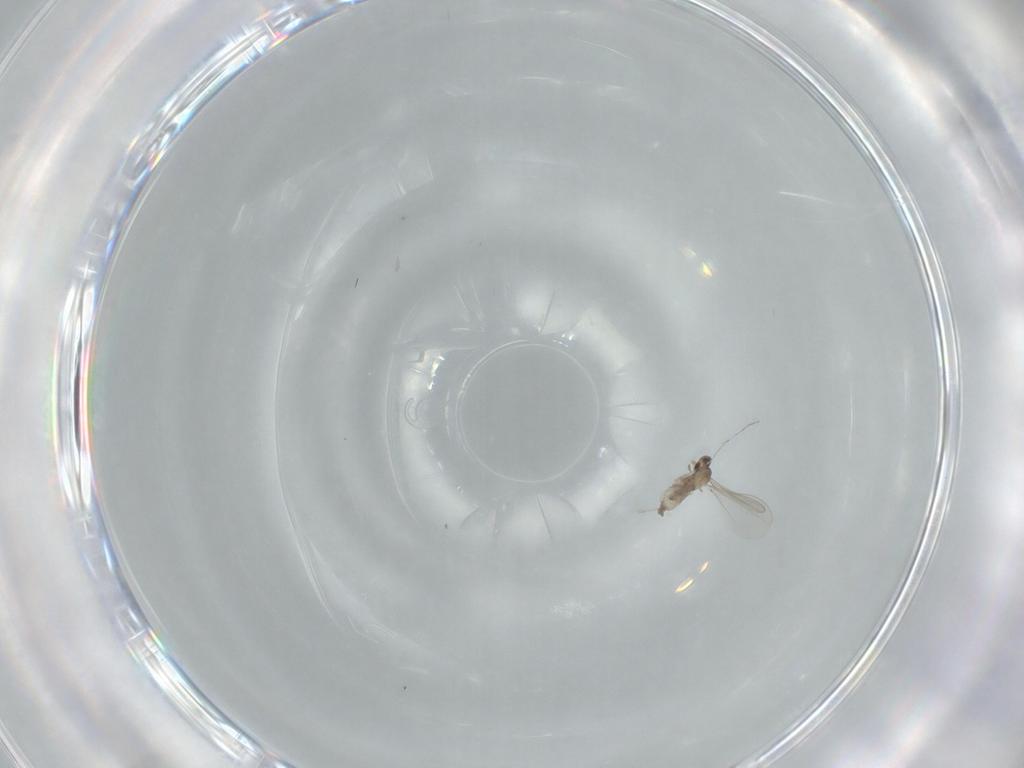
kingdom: Animalia
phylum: Arthropoda
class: Insecta
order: Diptera
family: Cecidomyiidae
